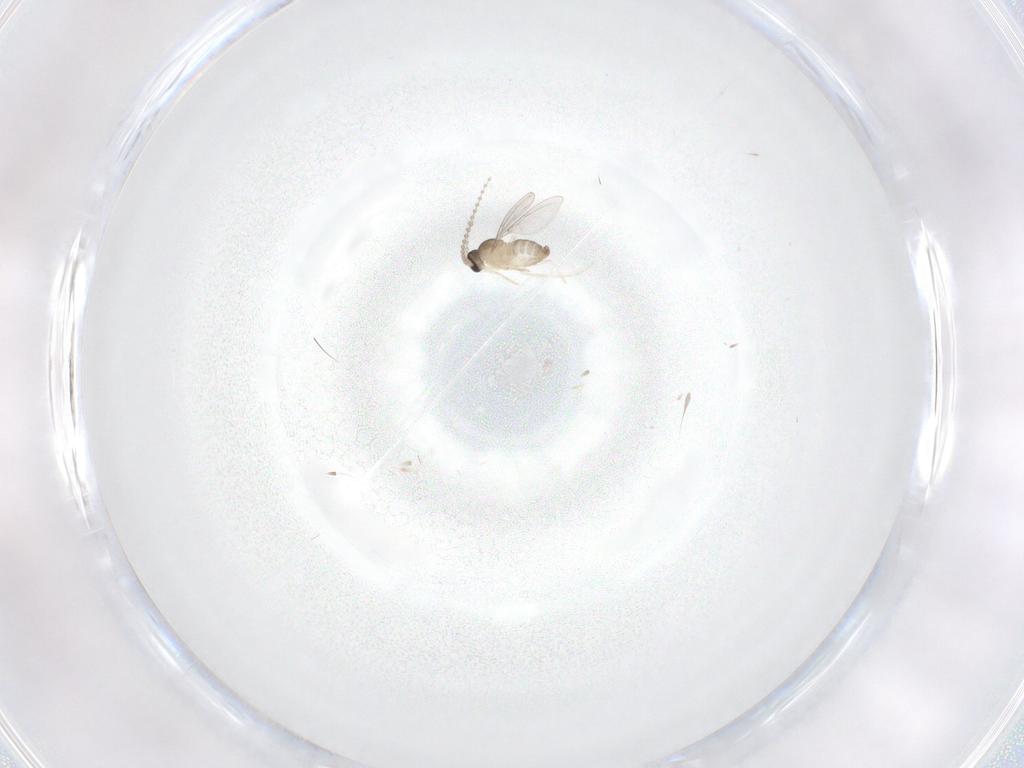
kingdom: Animalia
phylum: Arthropoda
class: Insecta
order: Diptera
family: Cecidomyiidae
